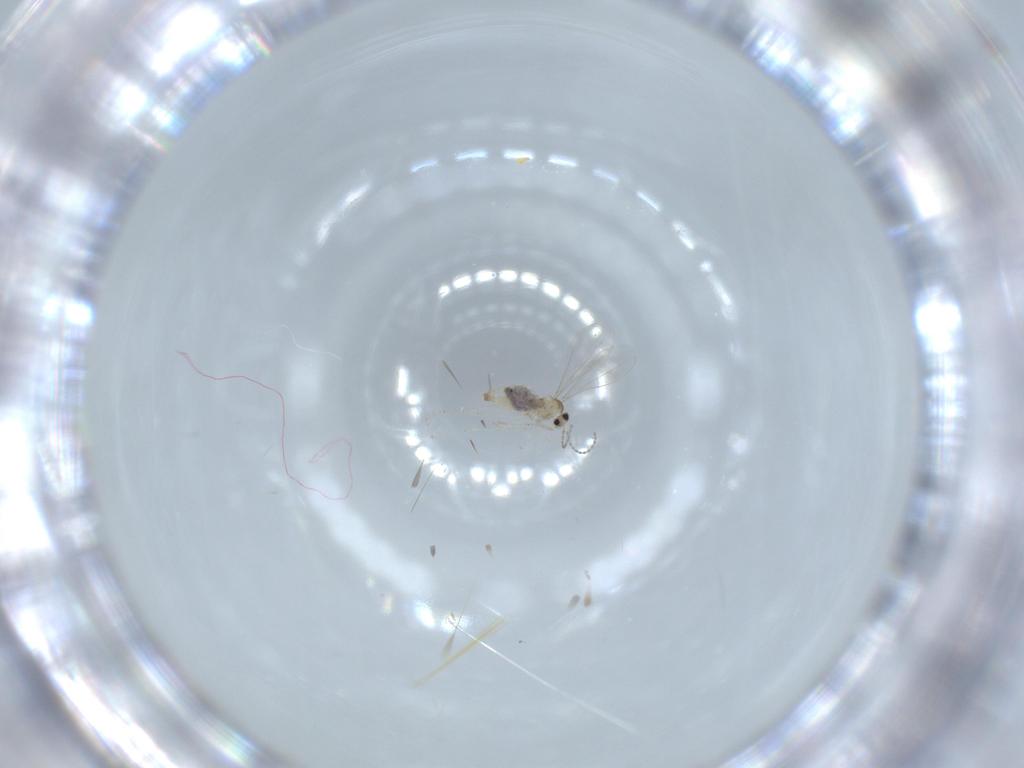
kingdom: Animalia
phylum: Arthropoda
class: Insecta
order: Diptera
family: Cecidomyiidae
